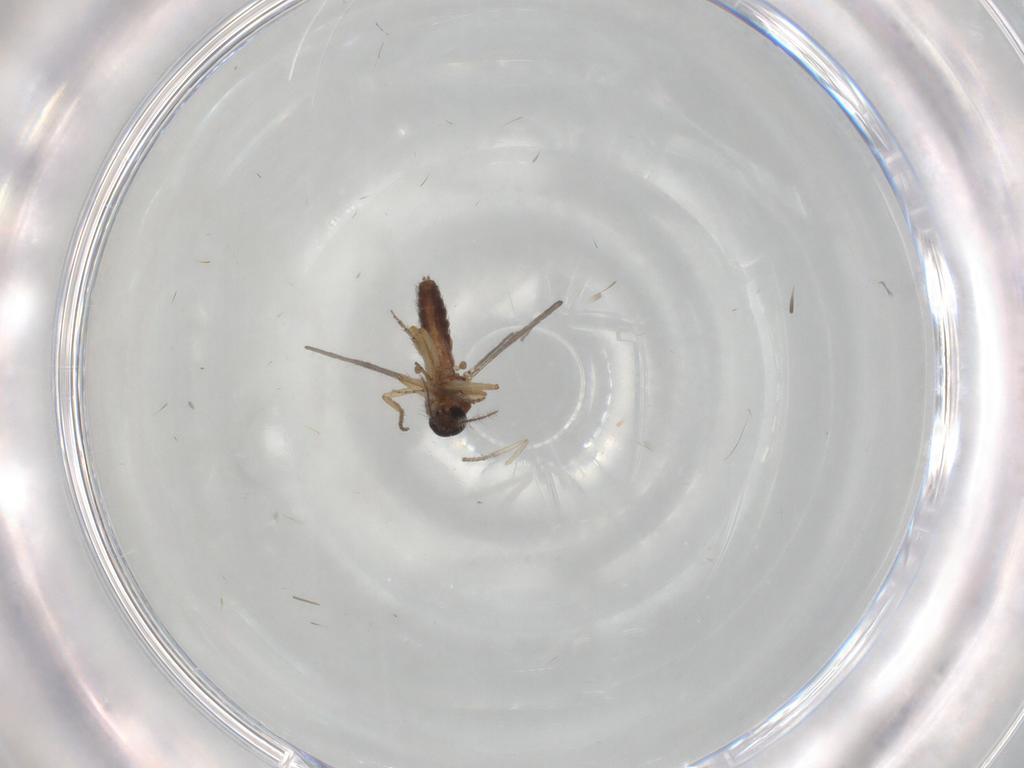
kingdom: Animalia
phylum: Arthropoda
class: Insecta
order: Diptera
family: Ceratopogonidae
